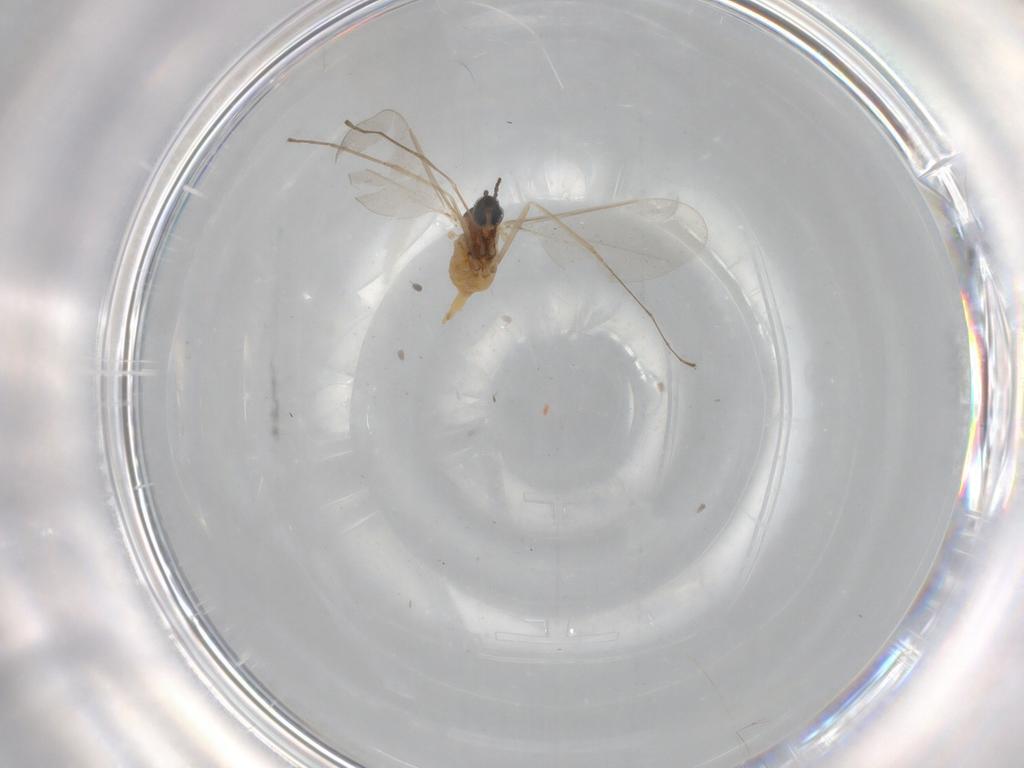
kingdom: Animalia
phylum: Arthropoda
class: Insecta
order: Diptera
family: Cecidomyiidae
